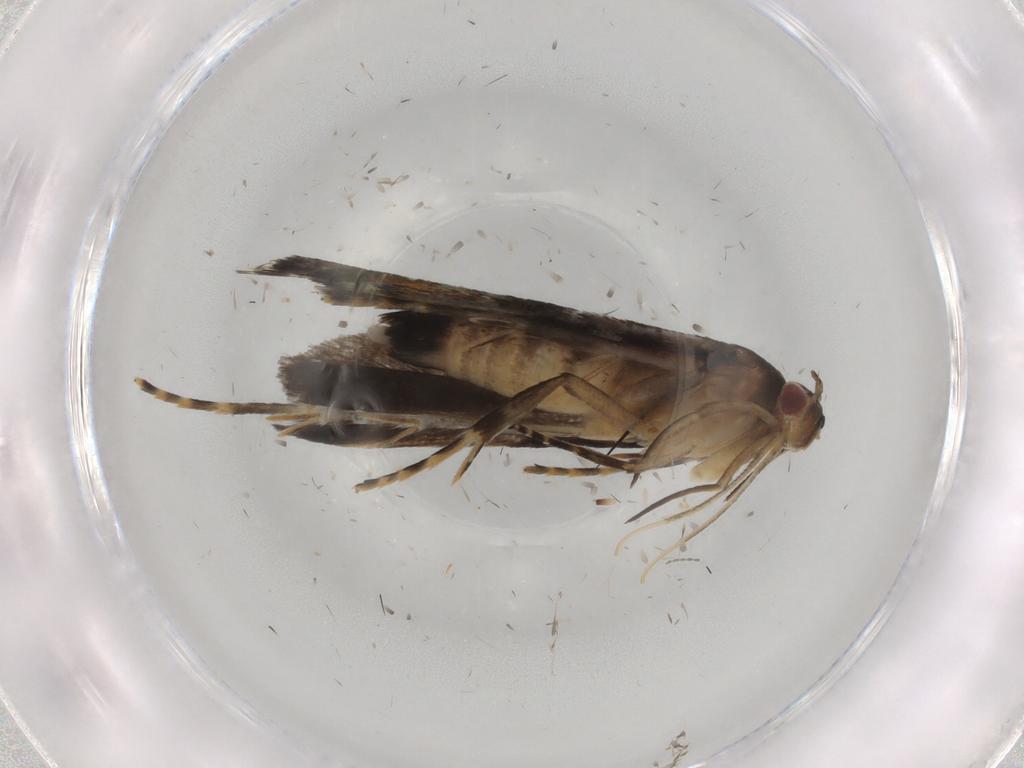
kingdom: Animalia
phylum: Arthropoda
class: Insecta
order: Lepidoptera
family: Gelechiidae
